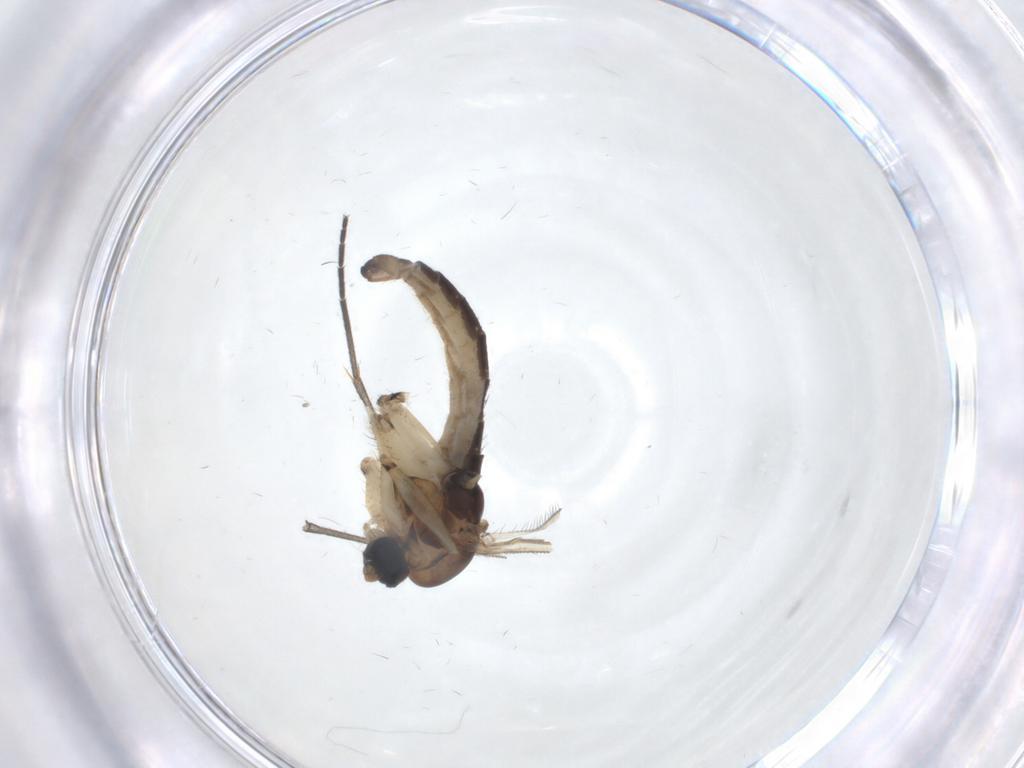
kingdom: Animalia
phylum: Arthropoda
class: Insecta
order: Diptera
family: Sciaridae
